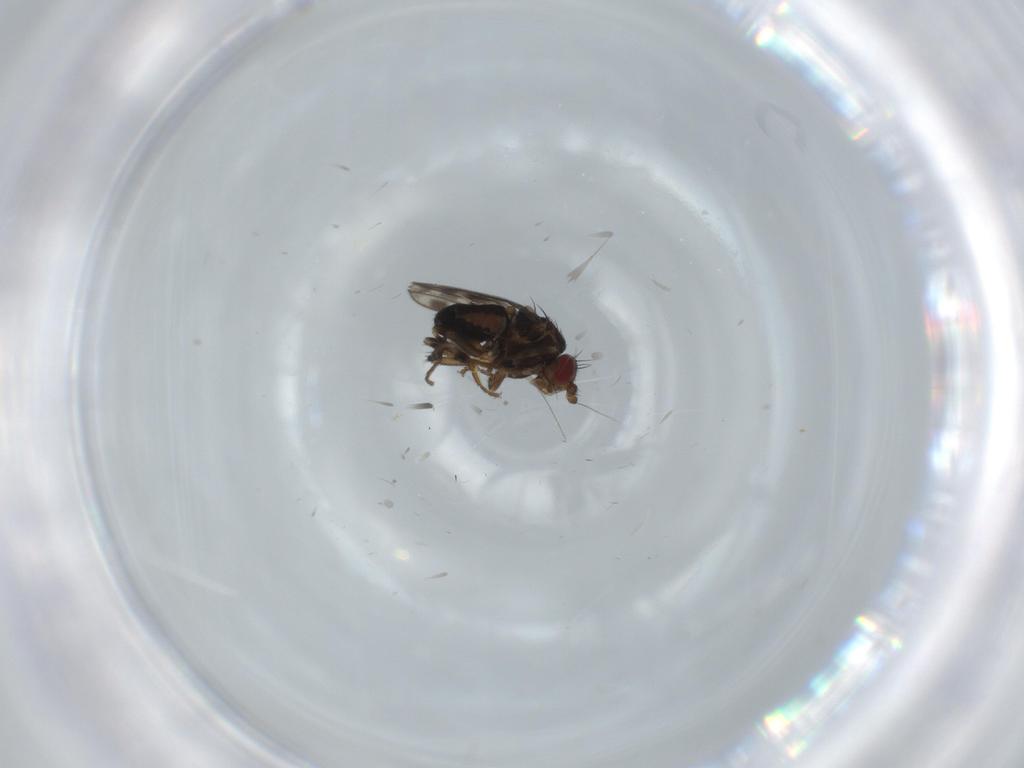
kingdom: Animalia
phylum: Arthropoda
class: Insecta
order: Diptera
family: Sphaeroceridae
